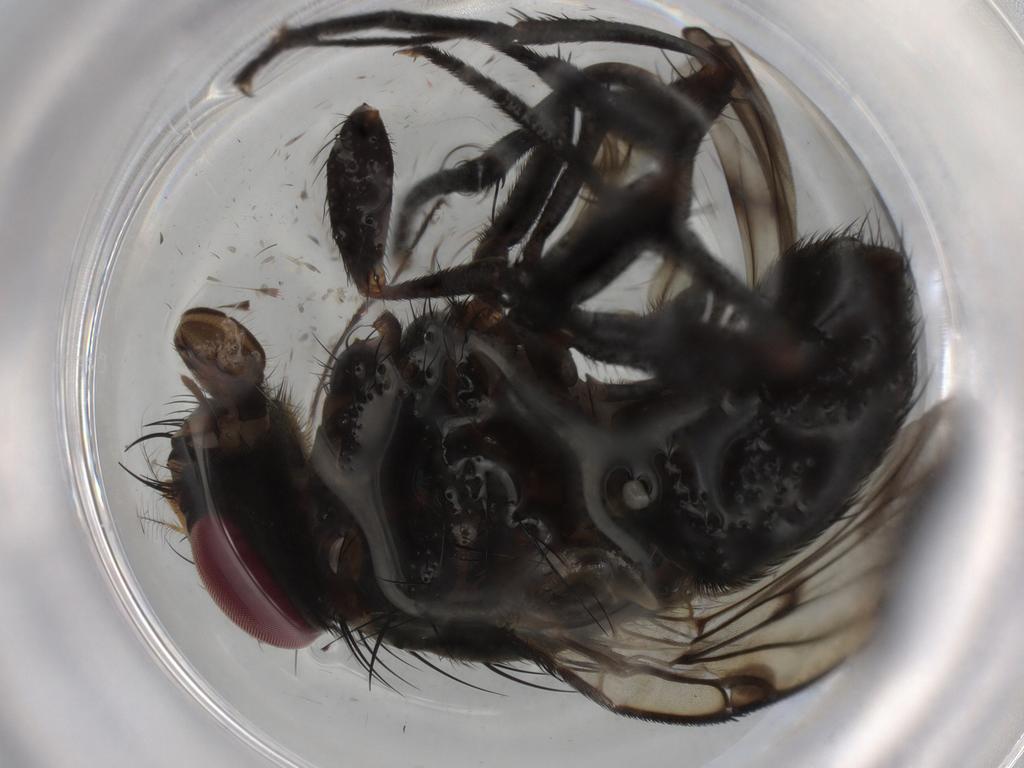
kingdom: Animalia
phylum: Arthropoda
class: Insecta
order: Diptera
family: Muscidae
